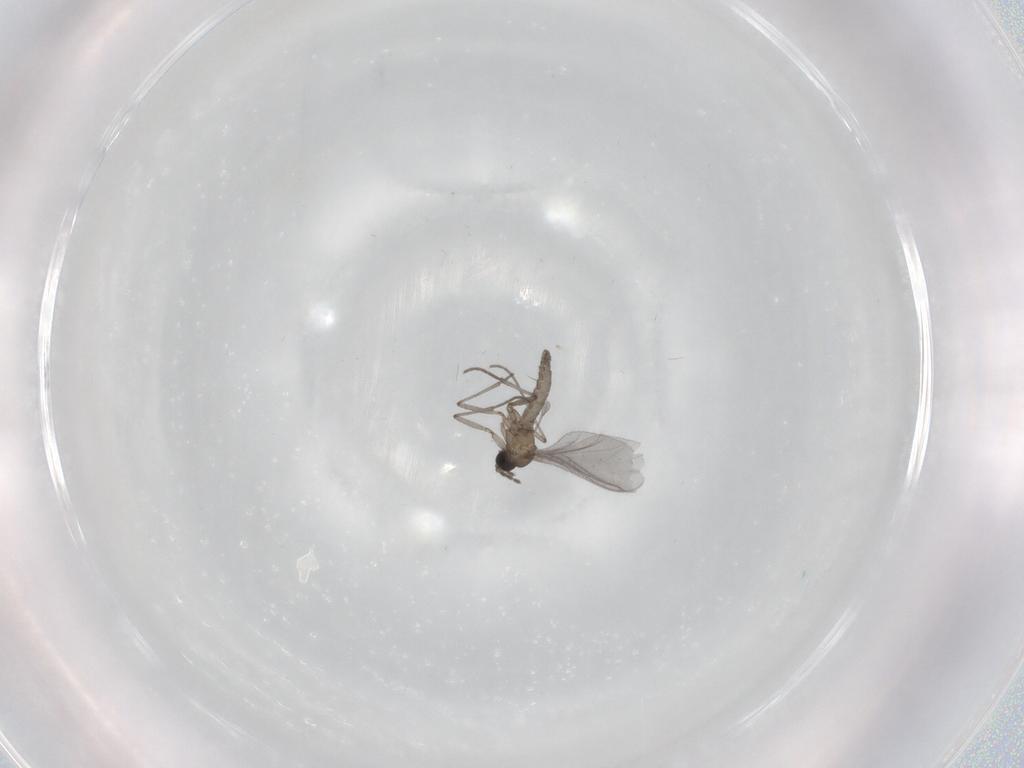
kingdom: Animalia
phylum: Arthropoda
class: Insecta
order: Diptera
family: Sciaridae
